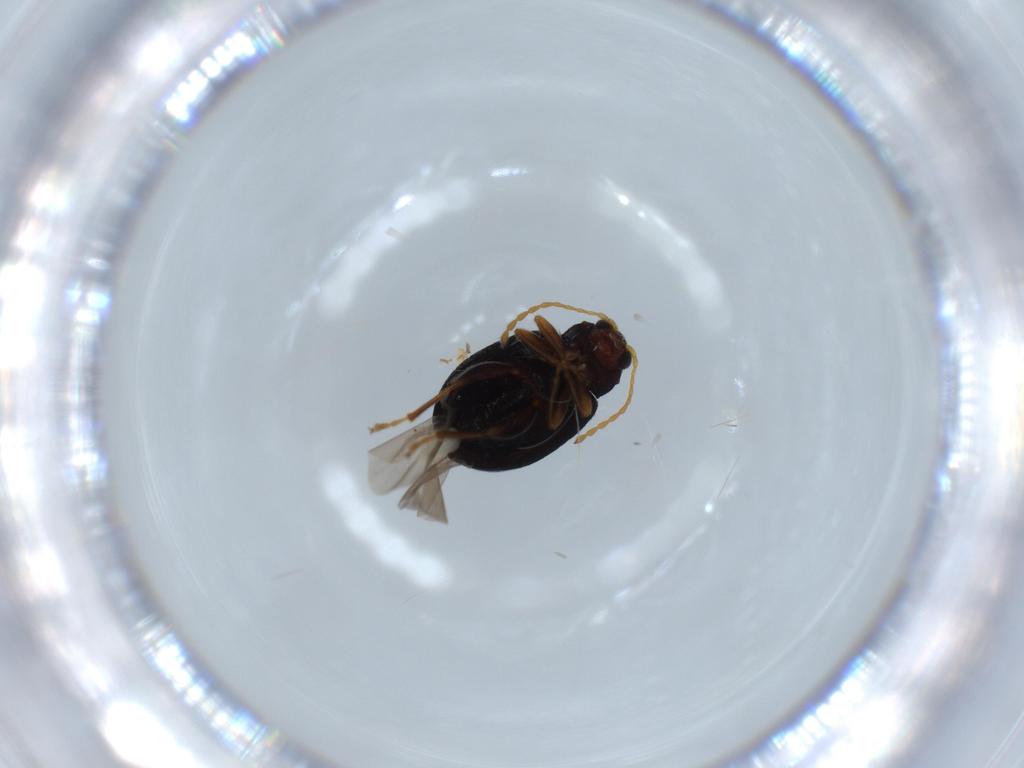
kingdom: Animalia
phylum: Arthropoda
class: Insecta
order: Coleoptera
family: Chrysomelidae
